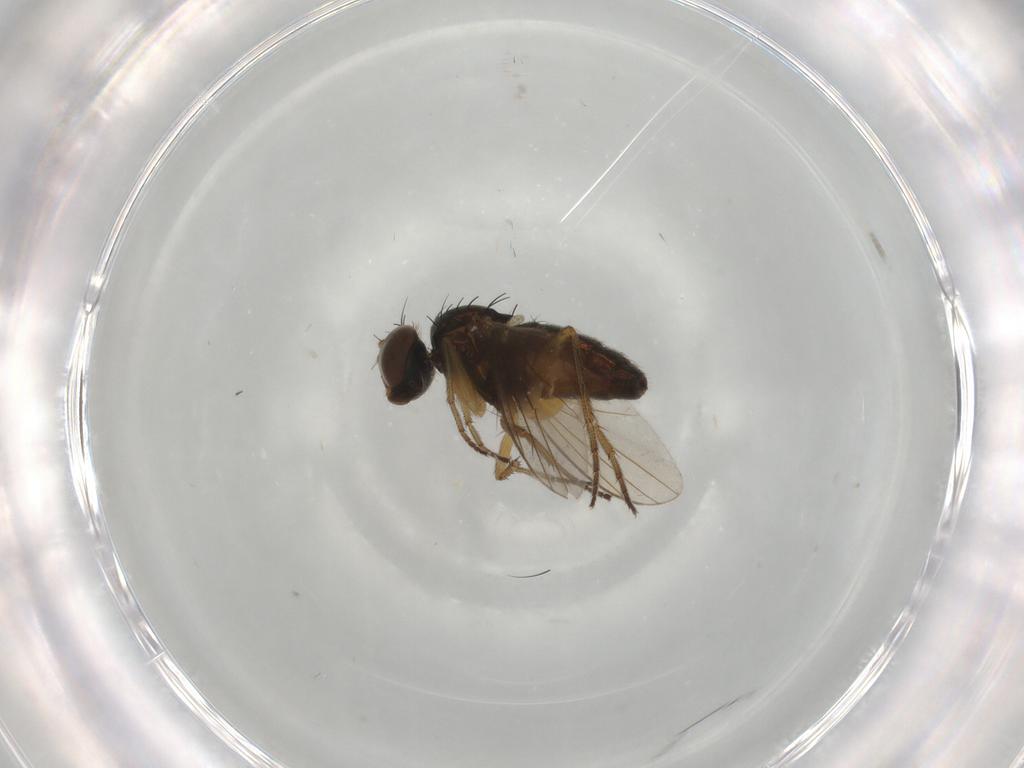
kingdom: Animalia
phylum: Arthropoda
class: Insecta
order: Diptera
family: Dolichopodidae
